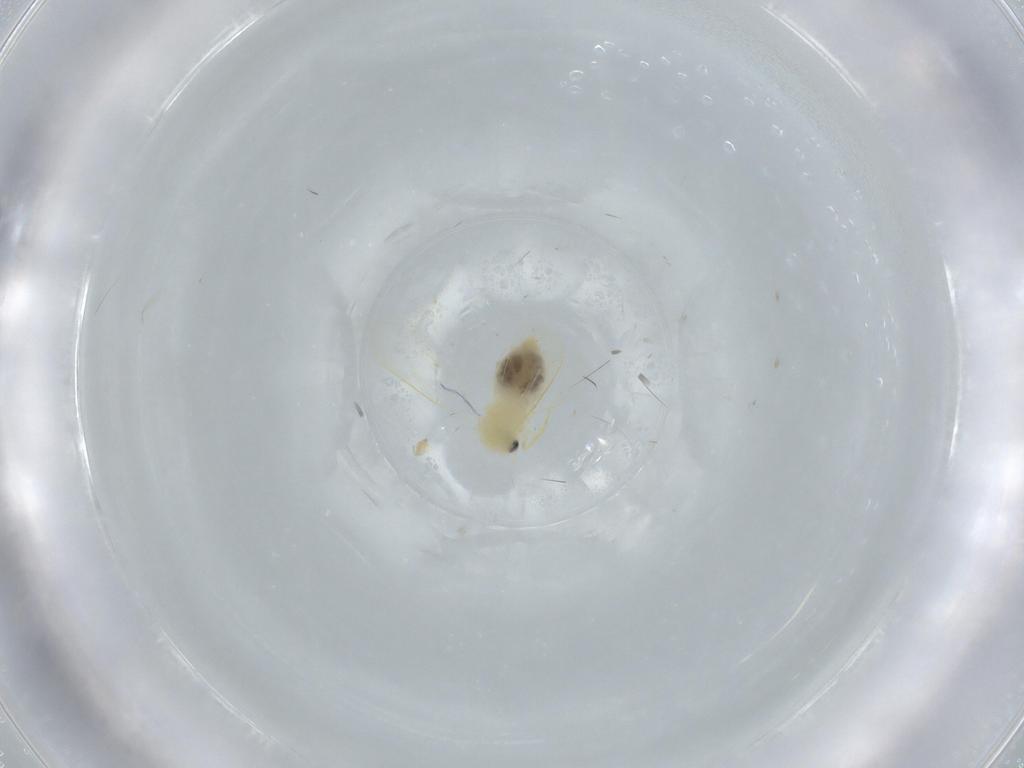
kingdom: Animalia
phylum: Arthropoda
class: Insecta
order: Hemiptera
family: Aleyrodidae
